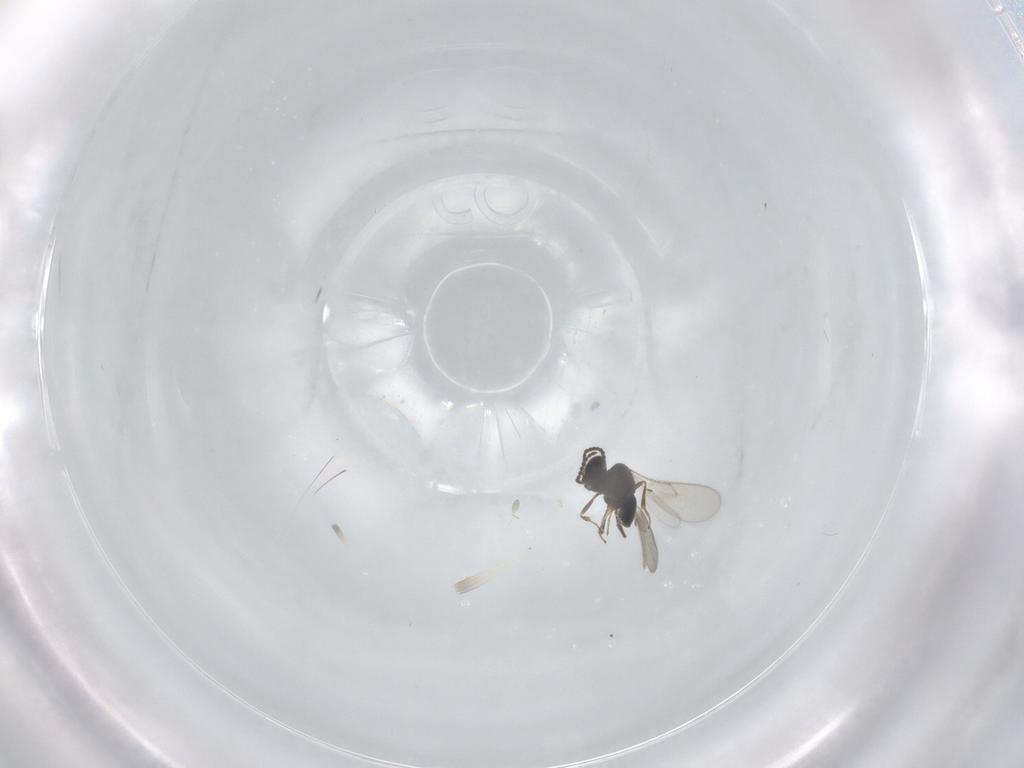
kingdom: Animalia
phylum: Arthropoda
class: Insecta
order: Hymenoptera
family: Scelionidae
